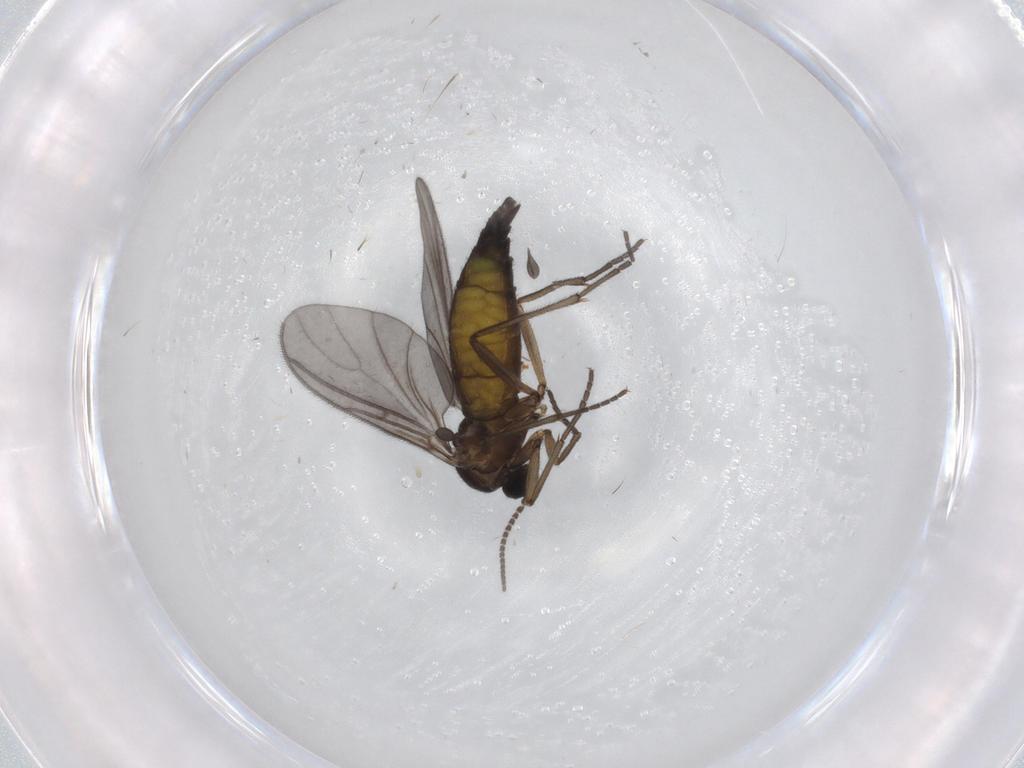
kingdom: Animalia
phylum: Arthropoda
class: Insecta
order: Diptera
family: Sciaridae
